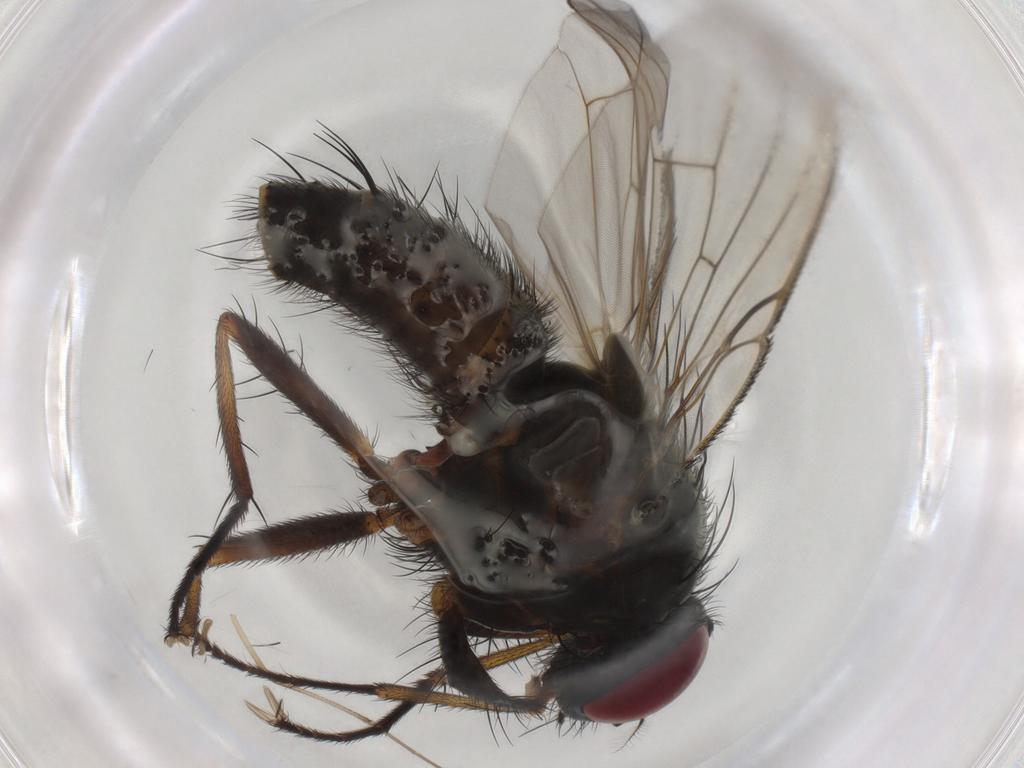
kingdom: Animalia
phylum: Arthropoda
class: Insecta
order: Diptera
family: Muscidae
